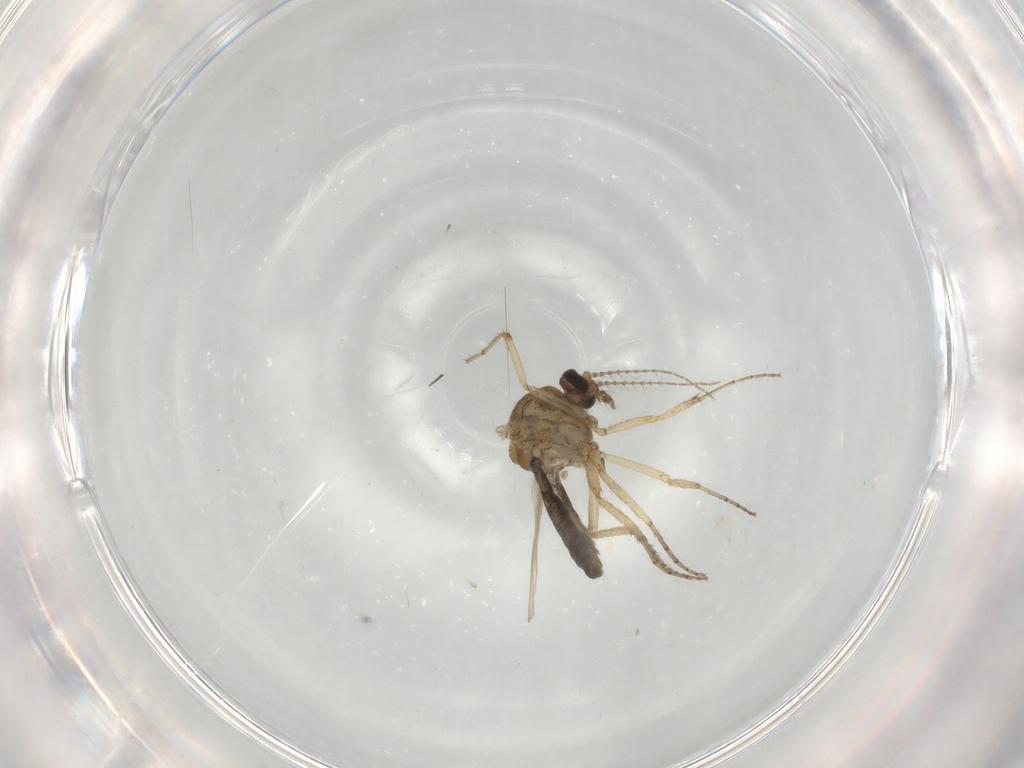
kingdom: Animalia
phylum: Arthropoda
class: Insecta
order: Diptera
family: Ceratopogonidae
